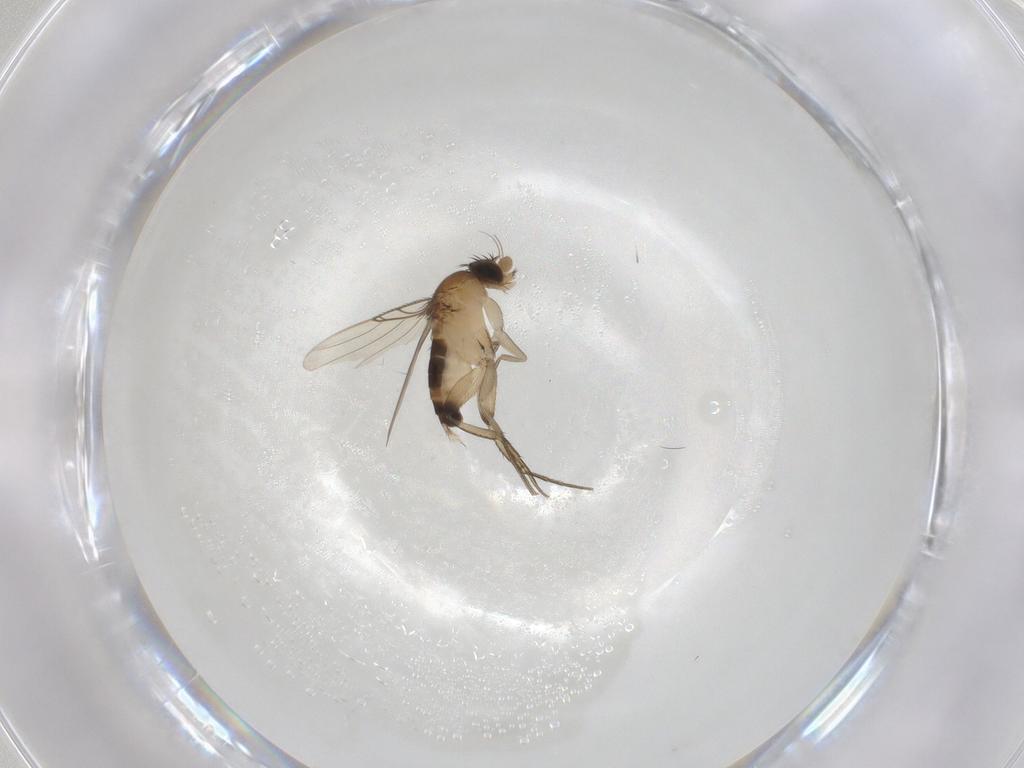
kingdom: Animalia
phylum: Arthropoda
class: Insecta
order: Diptera
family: Phoridae
